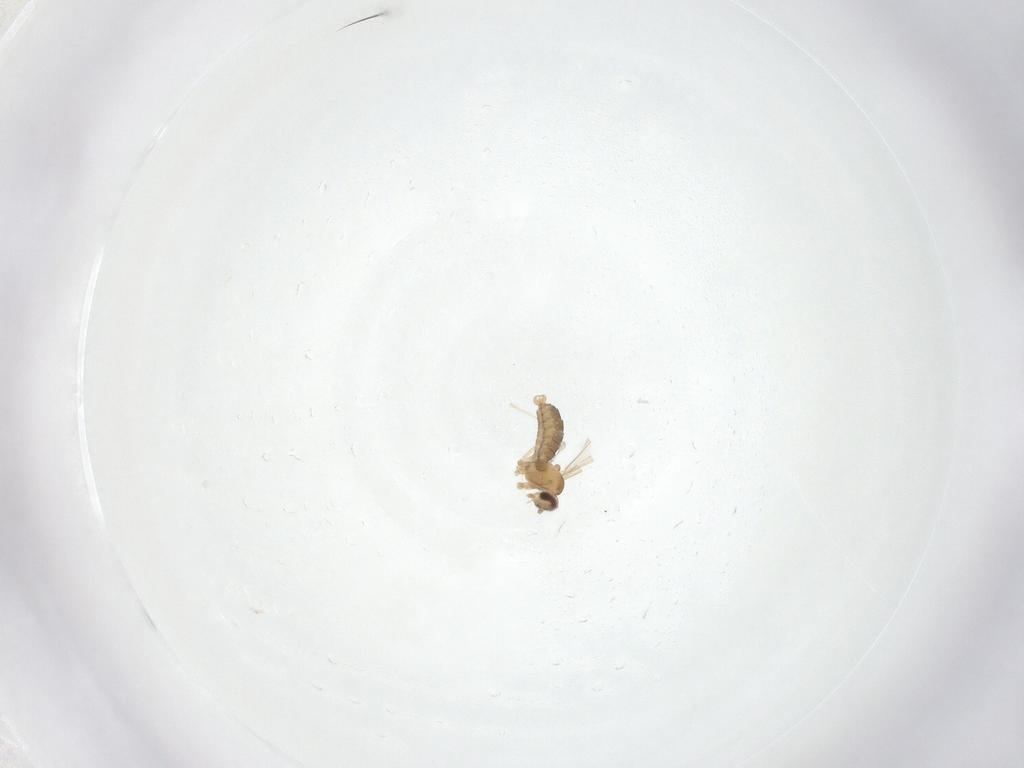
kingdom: Animalia
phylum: Arthropoda
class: Insecta
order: Diptera
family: Cecidomyiidae
